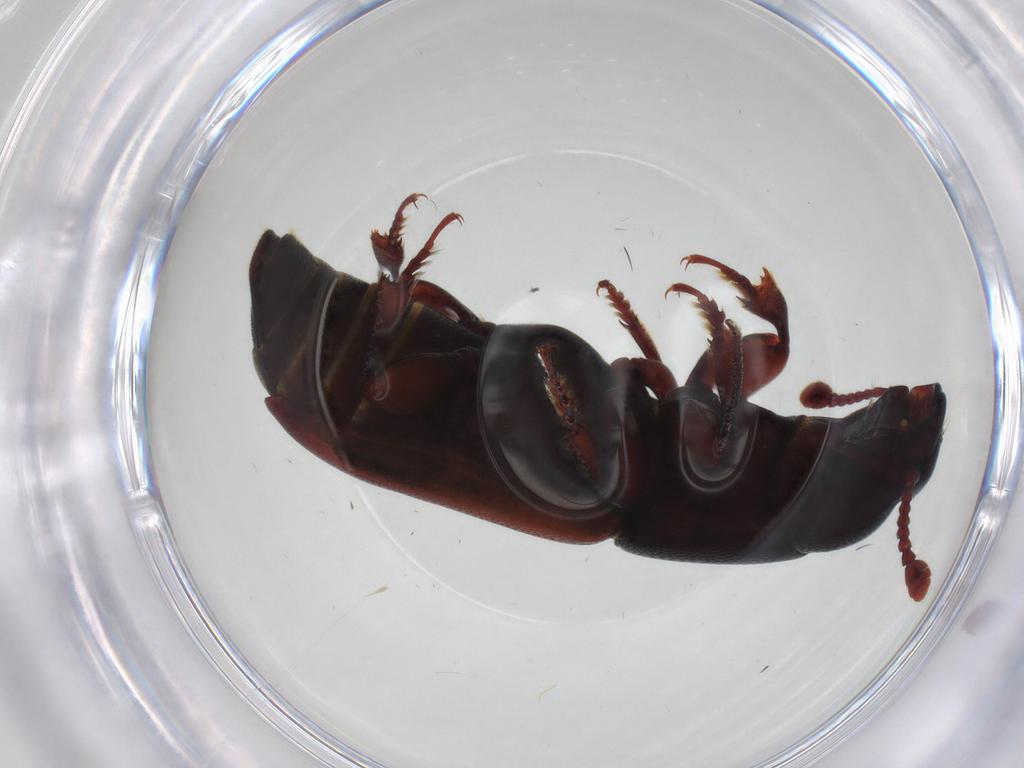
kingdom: Animalia
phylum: Arthropoda
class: Insecta
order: Coleoptera
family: Nitidulidae
